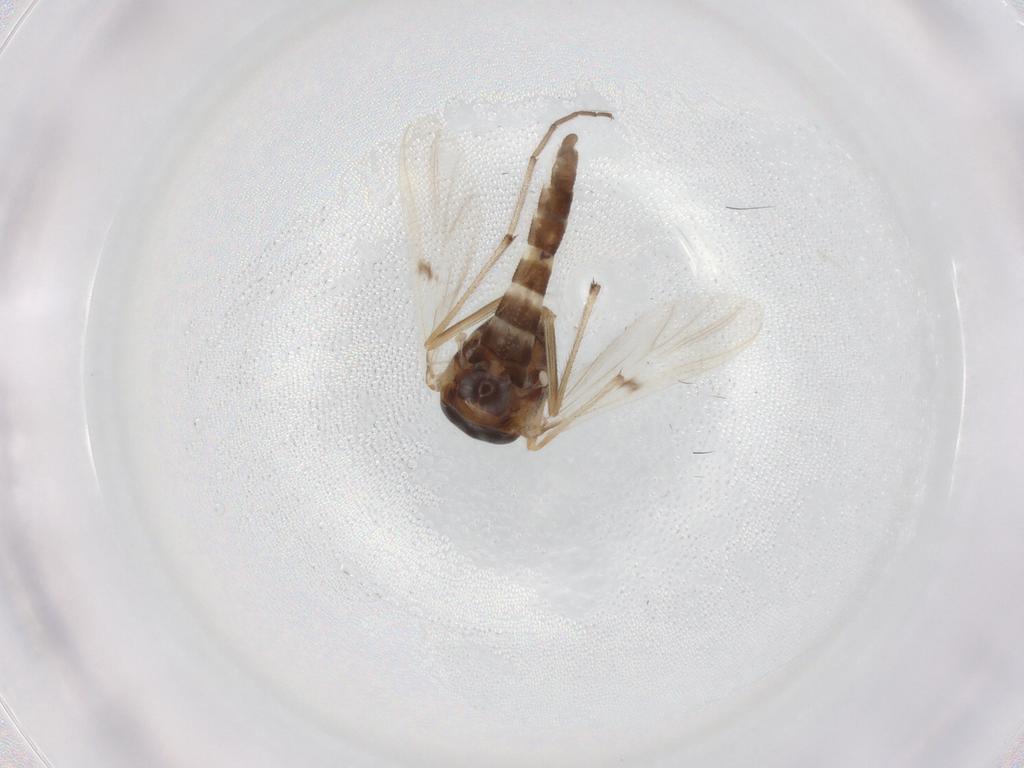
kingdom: Animalia
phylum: Arthropoda
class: Insecta
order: Diptera
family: Chironomidae
